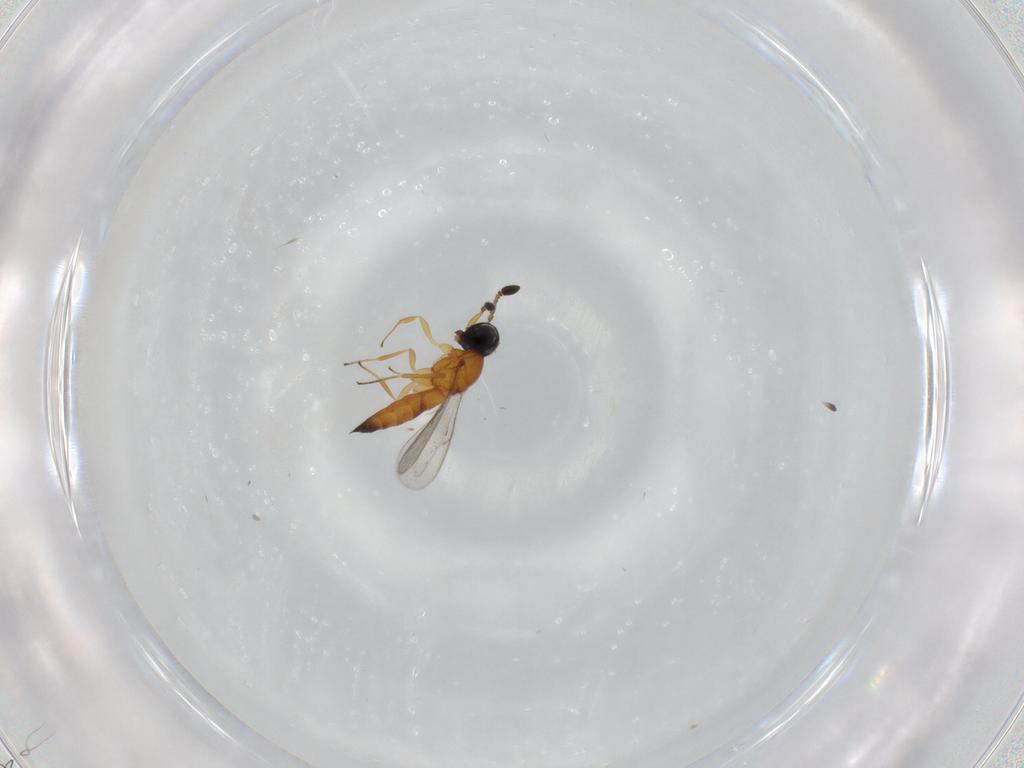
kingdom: Animalia
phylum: Arthropoda
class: Insecta
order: Hymenoptera
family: Scelionidae
